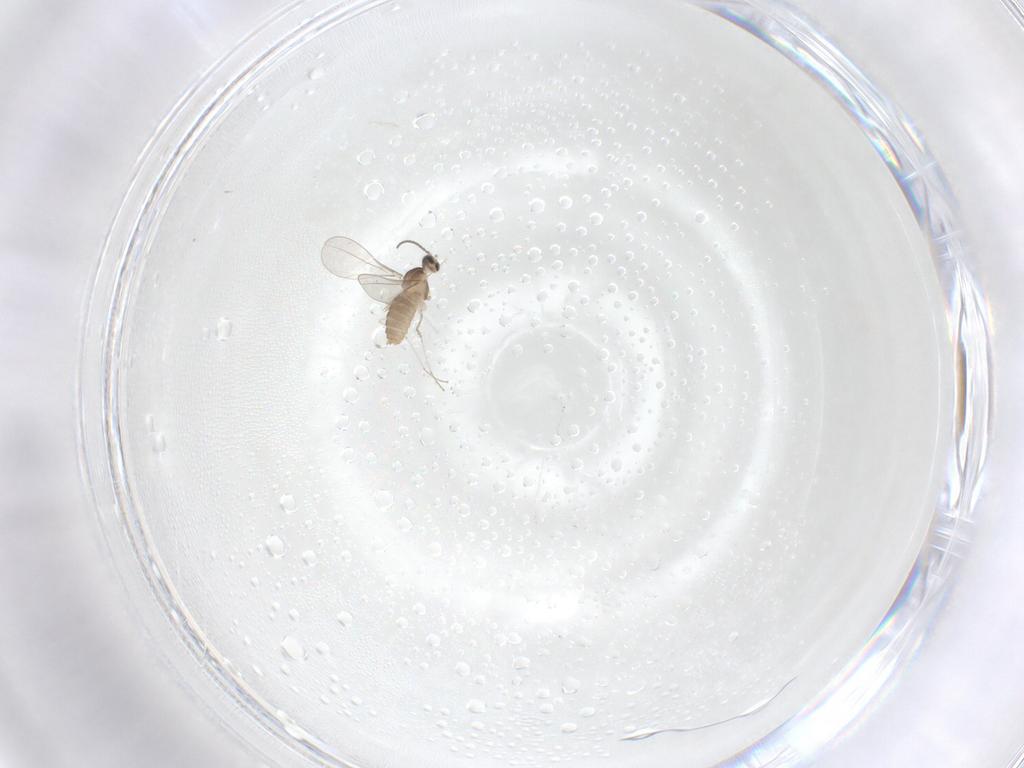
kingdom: Animalia
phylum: Arthropoda
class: Insecta
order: Diptera
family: Cecidomyiidae
